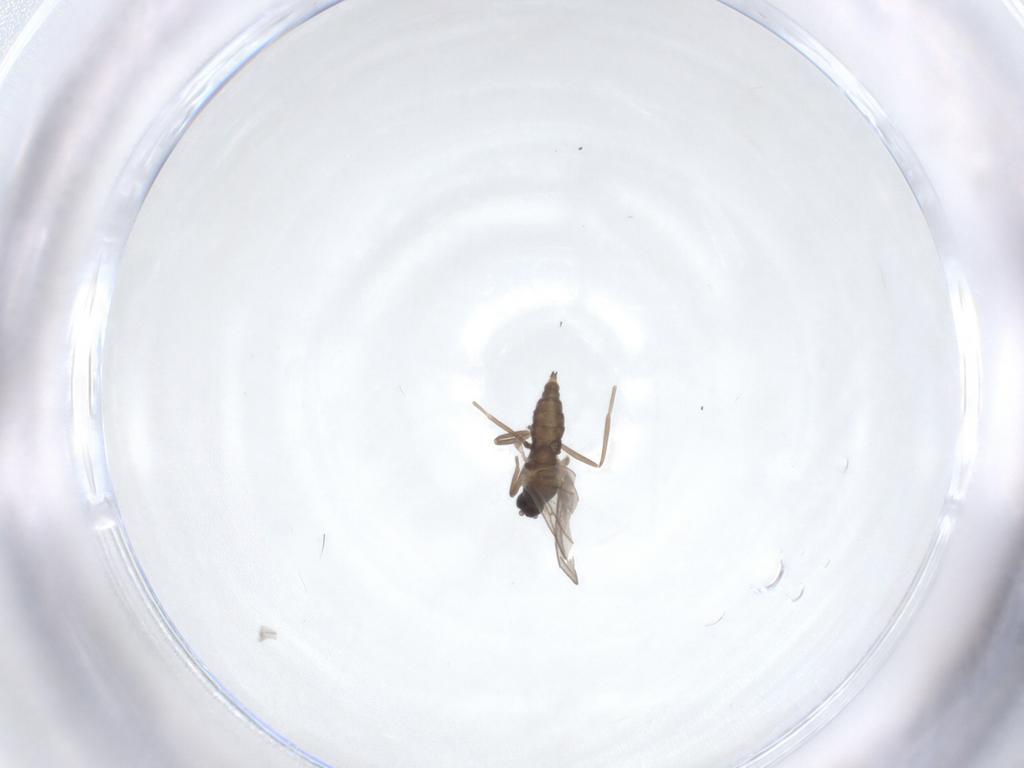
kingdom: Animalia
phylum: Arthropoda
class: Insecta
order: Diptera
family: Cecidomyiidae
